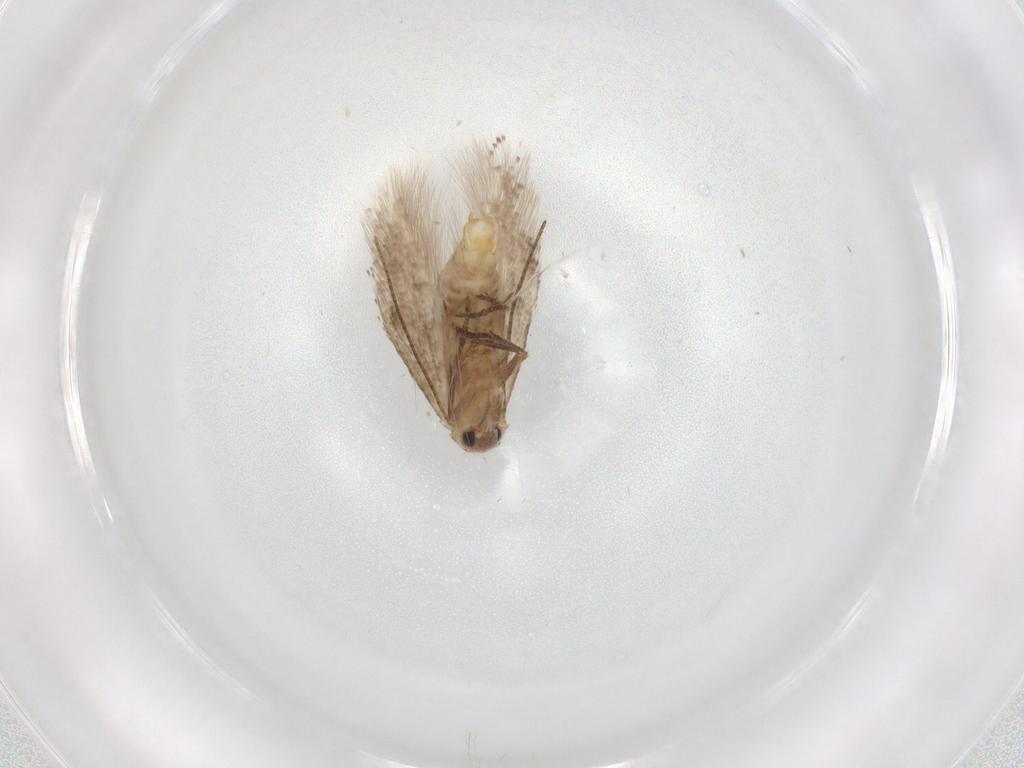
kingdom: Animalia
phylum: Arthropoda
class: Insecta
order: Lepidoptera
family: Bucculatricidae
